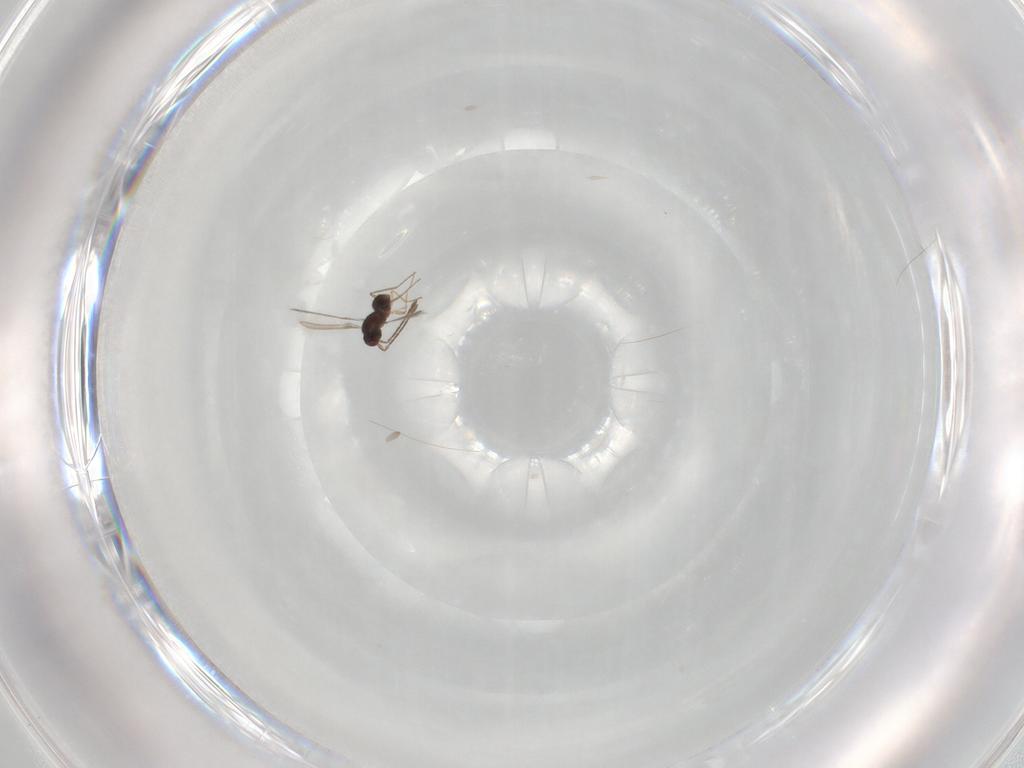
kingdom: Animalia
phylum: Arthropoda
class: Insecta
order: Hymenoptera
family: Mymaridae
